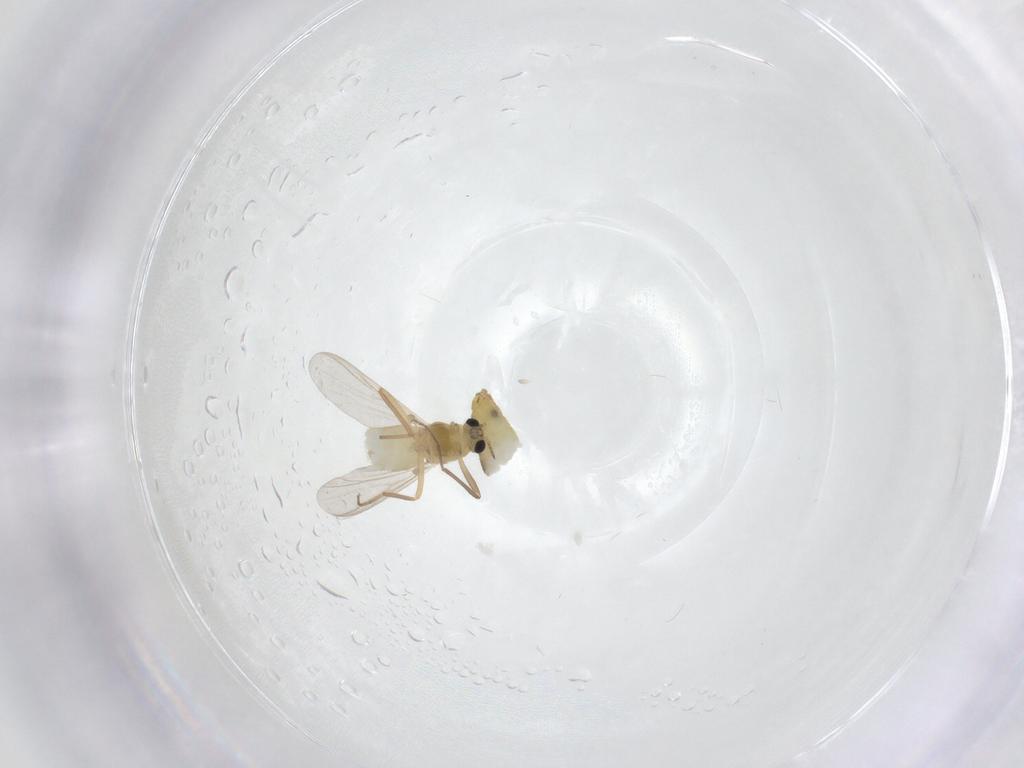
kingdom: Animalia
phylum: Arthropoda
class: Insecta
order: Diptera
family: Chironomidae
